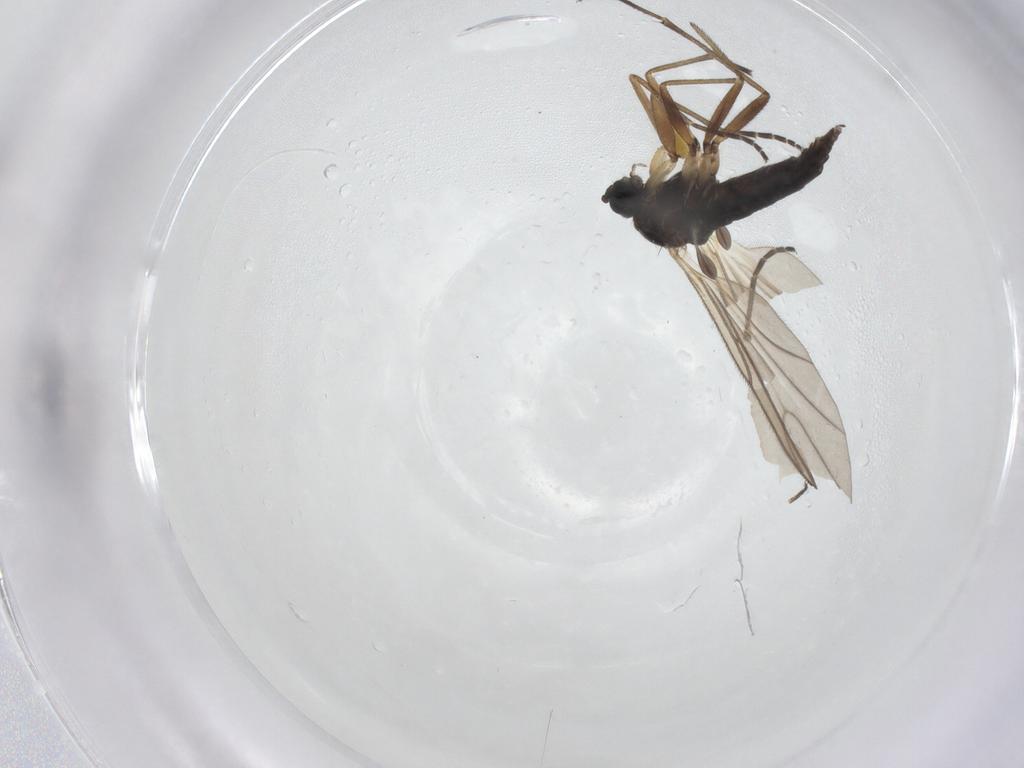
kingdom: Animalia
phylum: Arthropoda
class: Insecta
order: Diptera
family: Sciaridae
